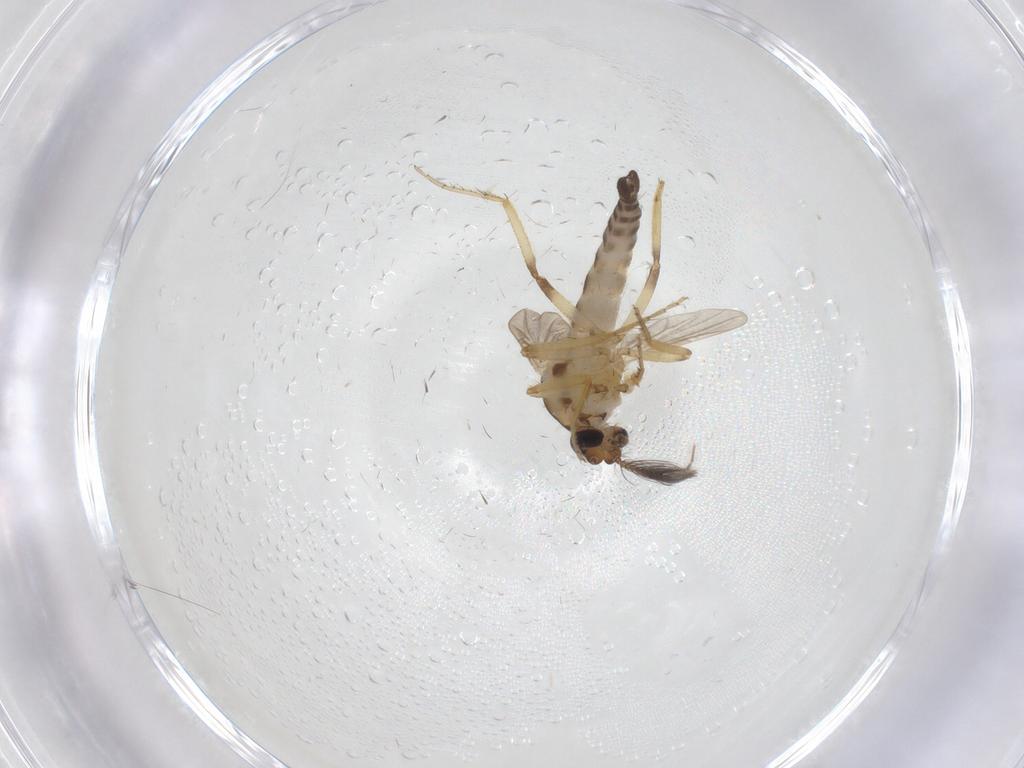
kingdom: Animalia
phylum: Arthropoda
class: Insecta
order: Diptera
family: Ceratopogonidae
